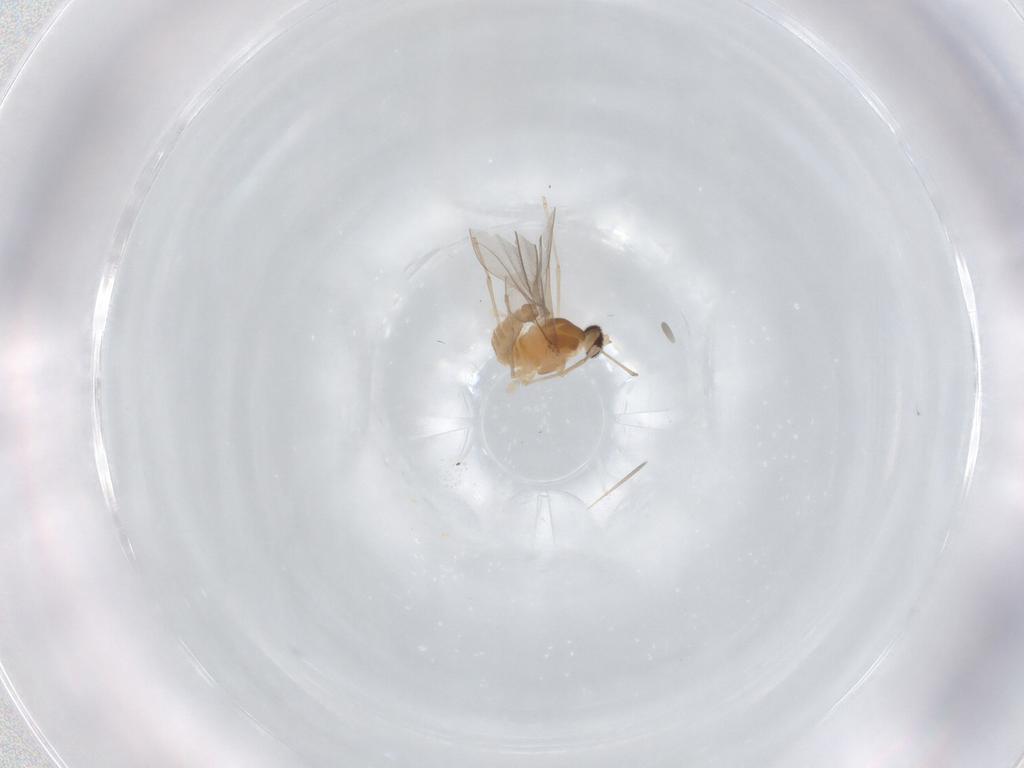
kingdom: Animalia
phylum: Arthropoda
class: Insecta
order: Diptera
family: Cecidomyiidae
